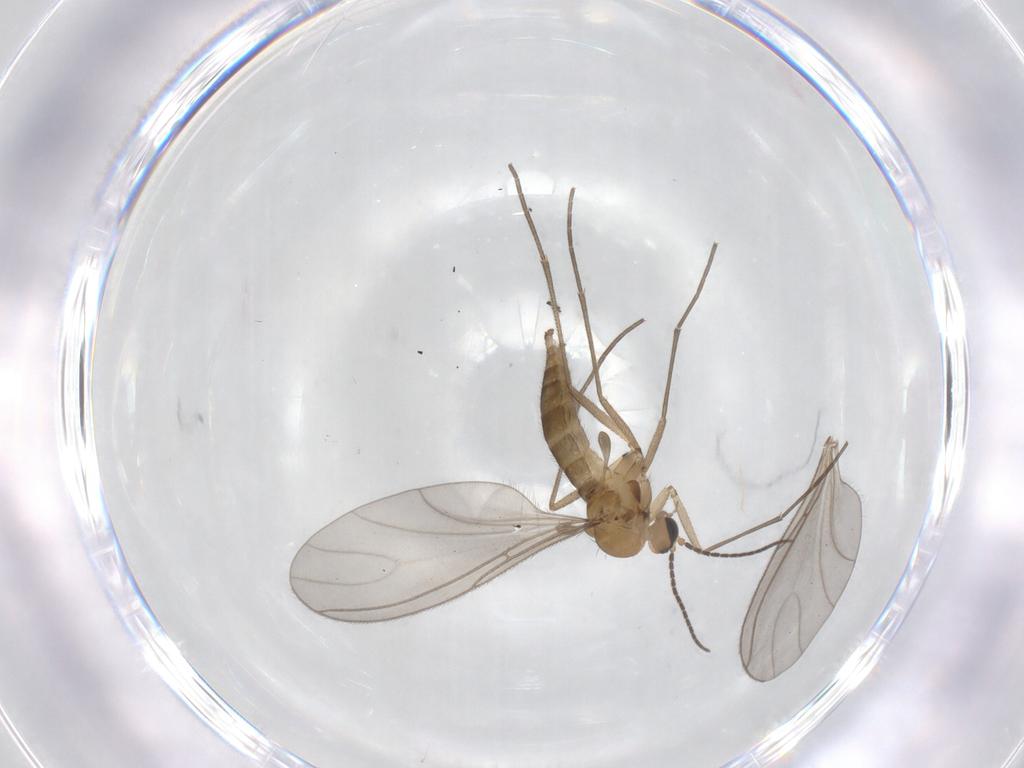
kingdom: Animalia
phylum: Arthropoda
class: Insecta
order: Diptera
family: Sciaridae
